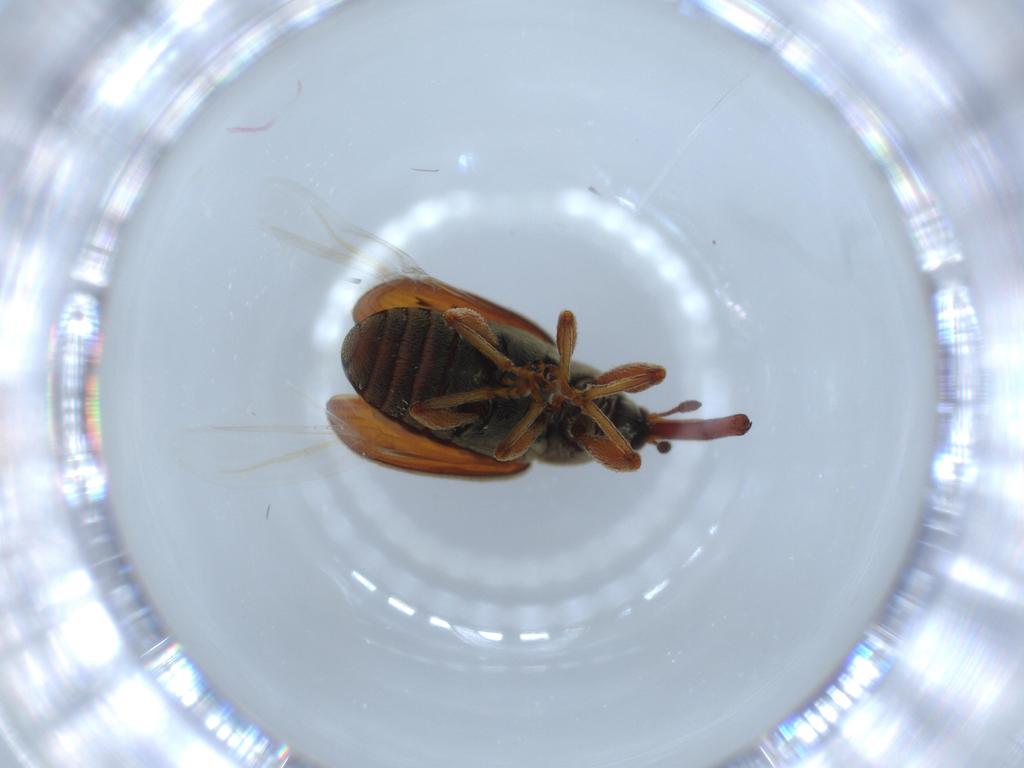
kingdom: Animalia
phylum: Arthropoda
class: Insecta
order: Coleoptera
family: Curculionidae
